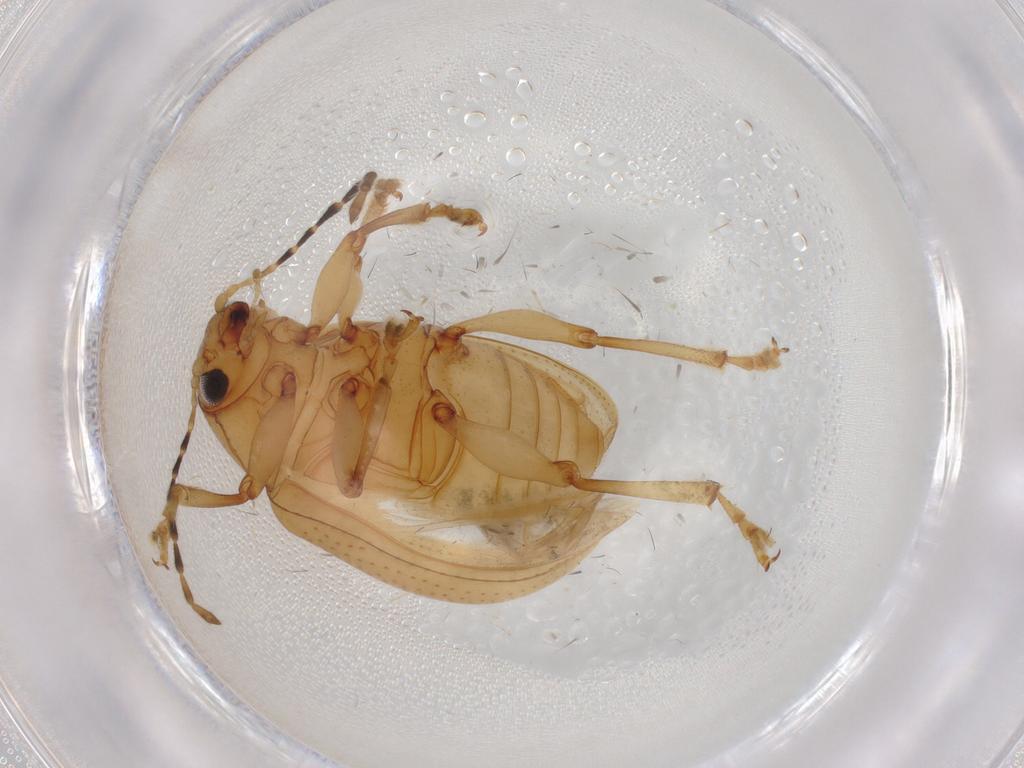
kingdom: Animalia
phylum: Arthropoda
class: Insecta
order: Coleoptera
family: Chrysomelidae
